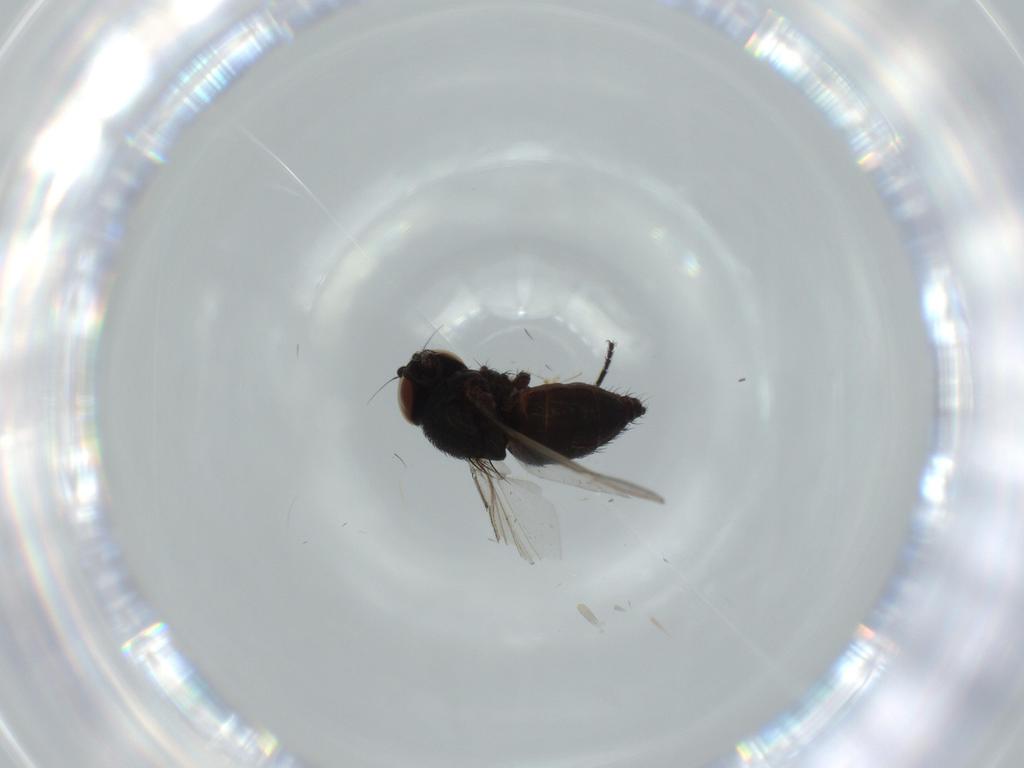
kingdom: Animalia
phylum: Arthropoda
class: Insecta
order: Diptera
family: Milichiidae
